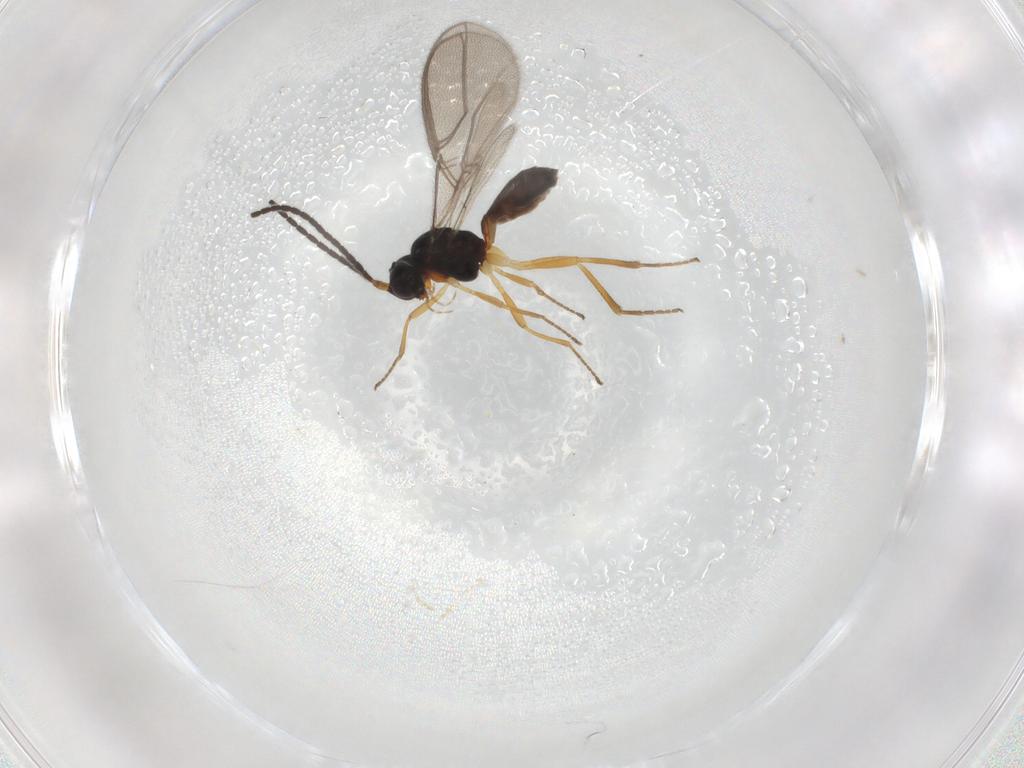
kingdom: Animalia
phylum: Arthropoda
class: Insecta
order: Hymenoptera
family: Braconidae
